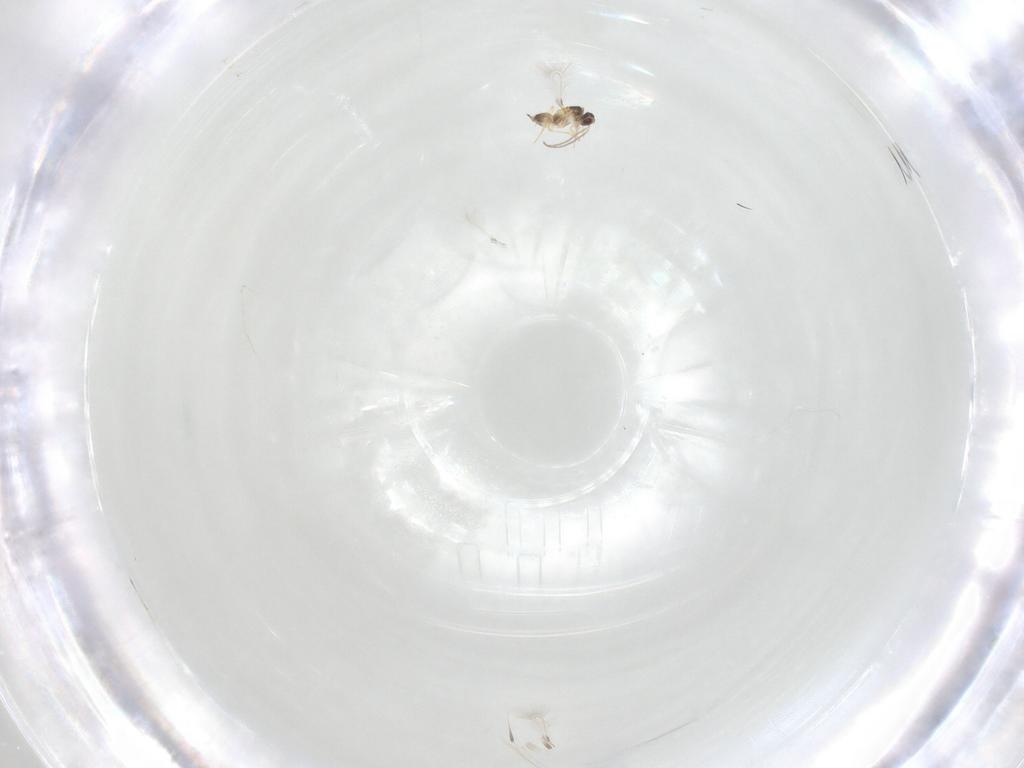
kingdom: Animalia
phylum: Arthropoda
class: Insecta
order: Hymenoptera
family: Mymaridae
